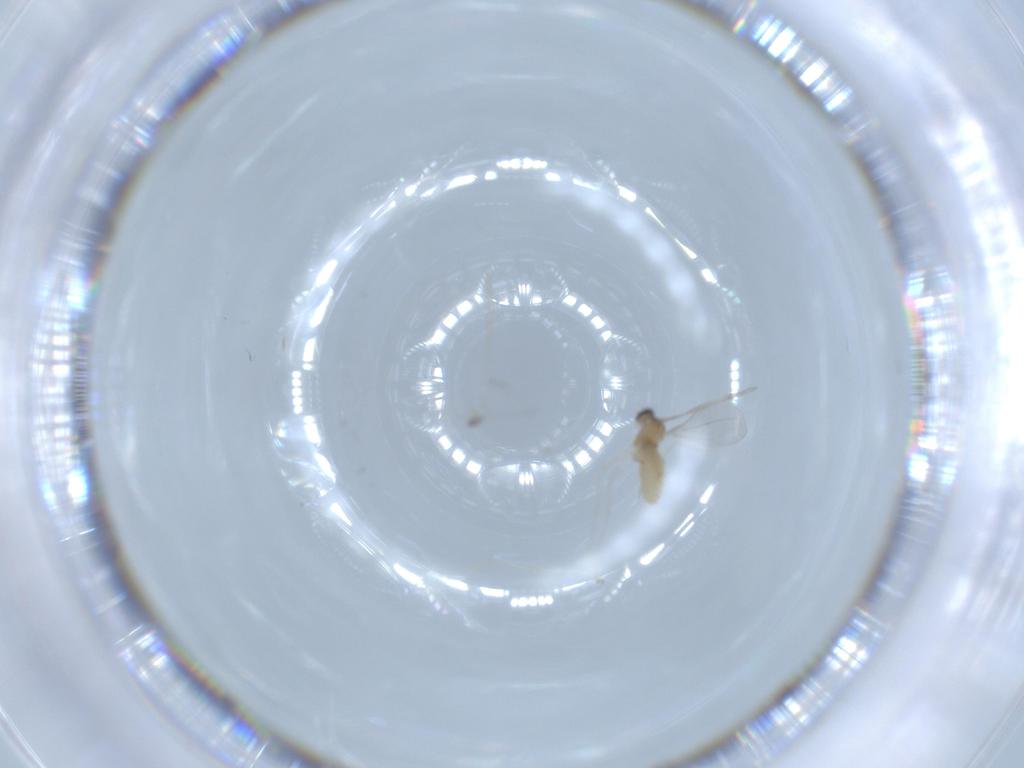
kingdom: Animalia
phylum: Arthropoda
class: Insecta
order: Diptera
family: Cecidomyiidae
